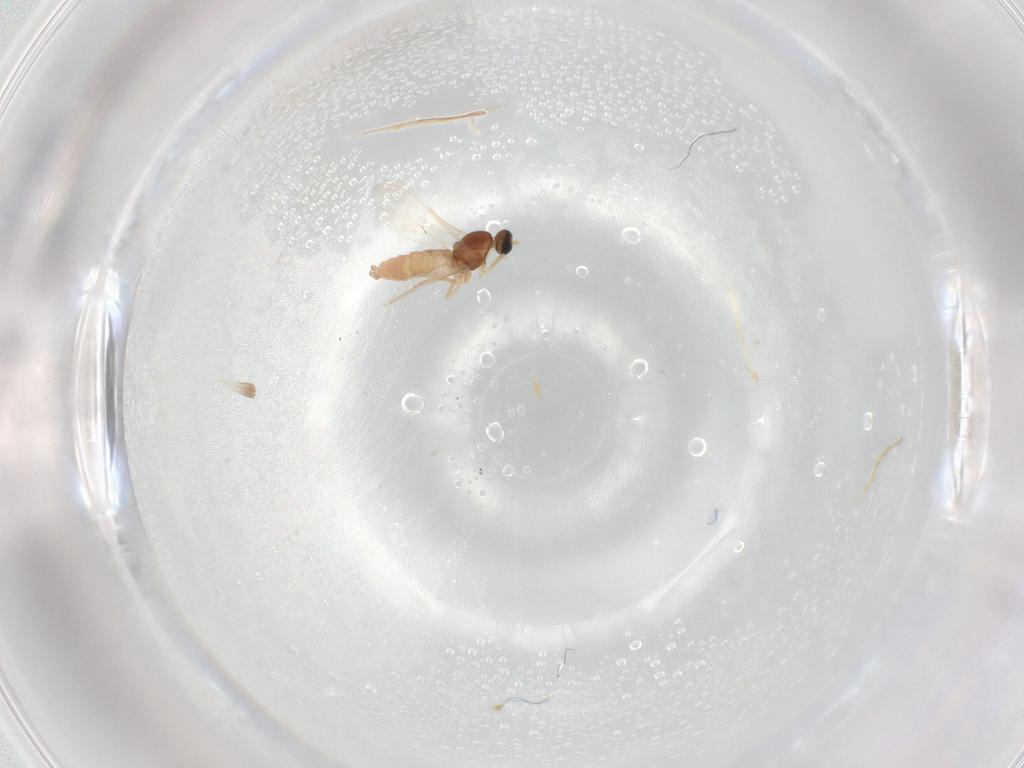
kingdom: Animalia
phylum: Arthropoda
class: Insecta
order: Diptera
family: Cecidomyiidae
